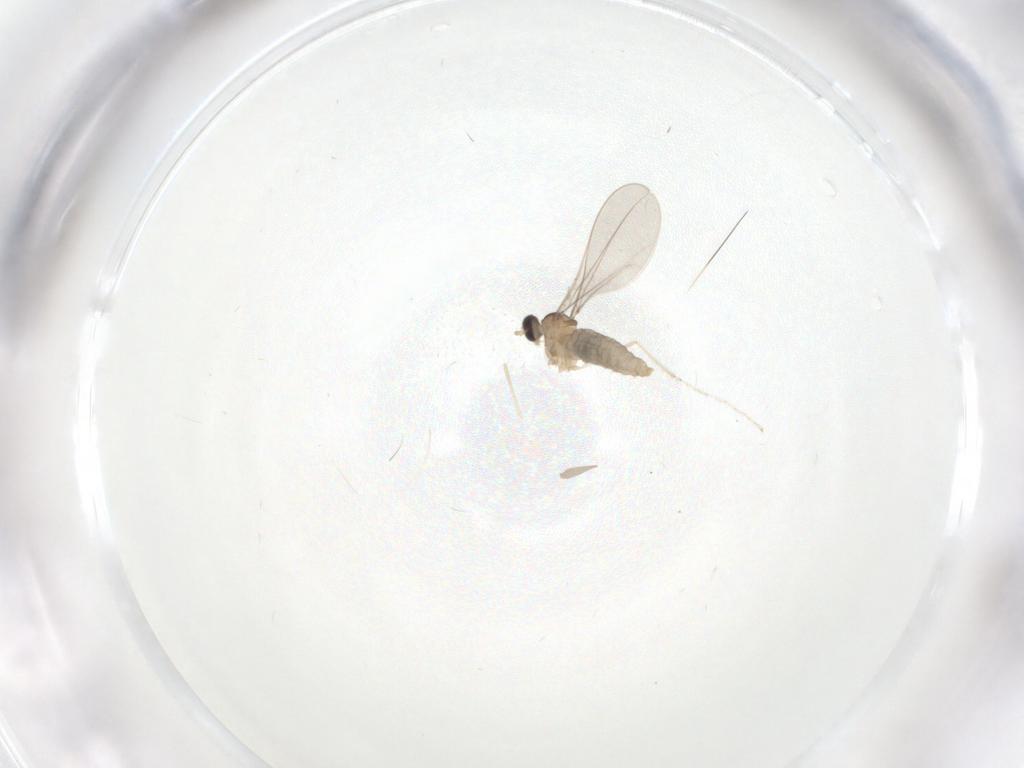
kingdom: Animalia
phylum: Arthropoda
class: Insecta
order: Diptera
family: Cecidomyiidae
